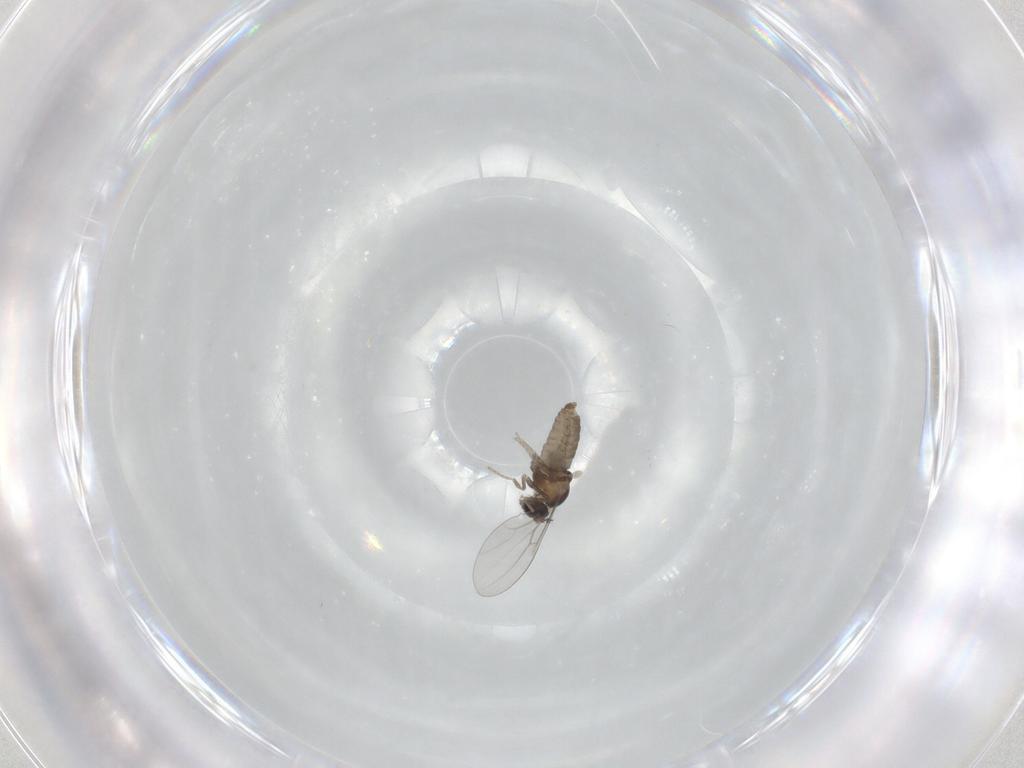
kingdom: Animalia
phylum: Arthropoda
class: Insecta
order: Diptera
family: Cecidomyiidae
